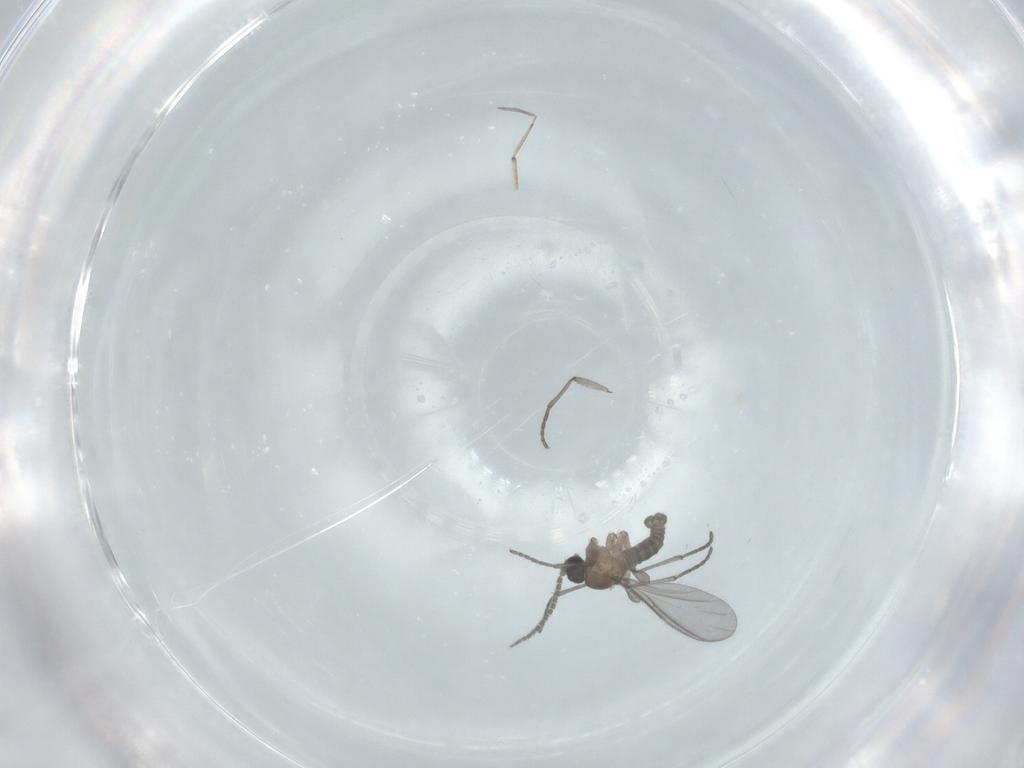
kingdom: Animalia
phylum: Arthropoda
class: Insecta
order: Diptera
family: Sciaridae
